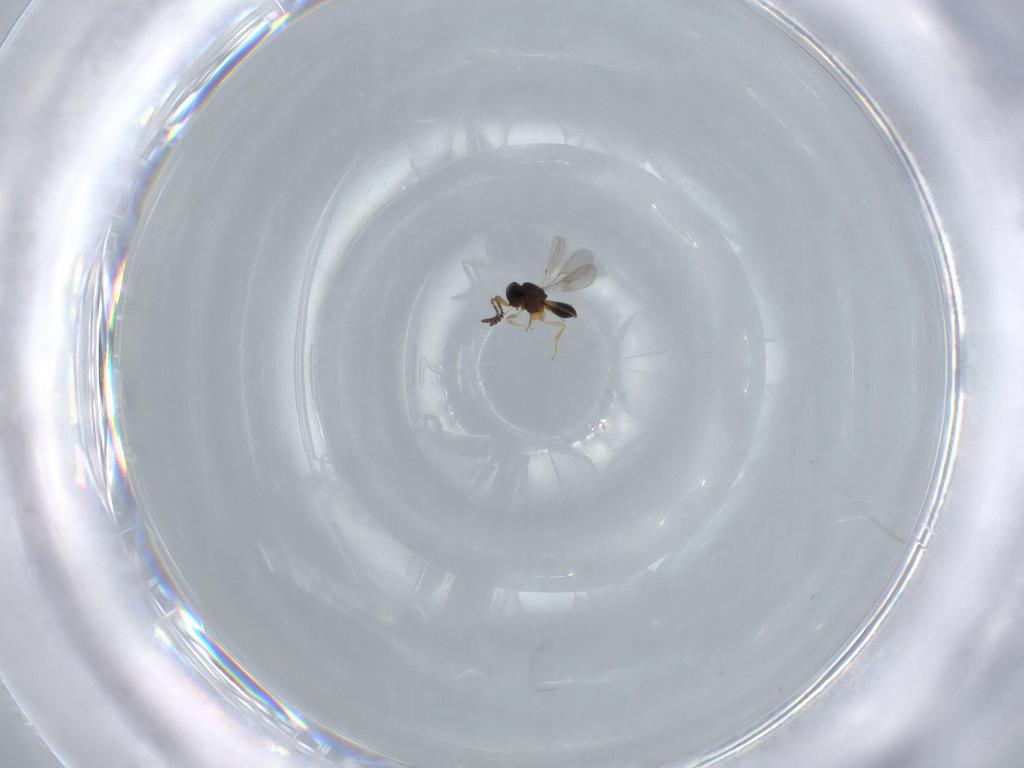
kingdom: Animalia
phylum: Arthropoda
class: Insecta
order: Hymenoptera
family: Scelionidae
